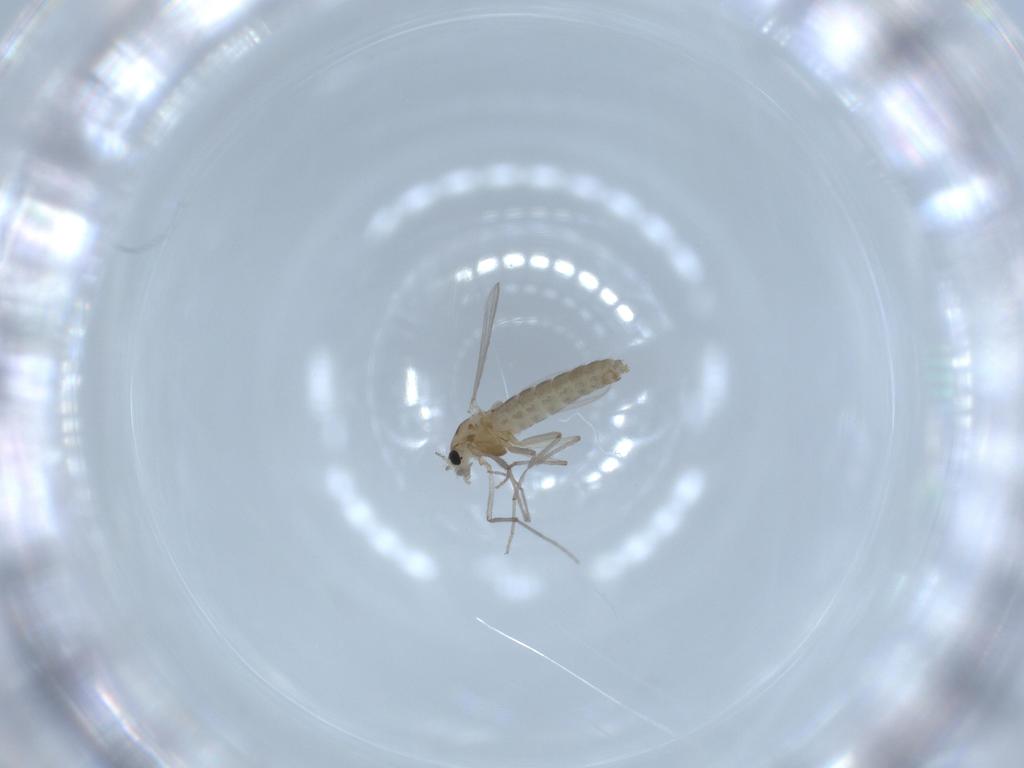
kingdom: Animalia
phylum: Arthropoda
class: Insecta
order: Diptera
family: Chironomidae
